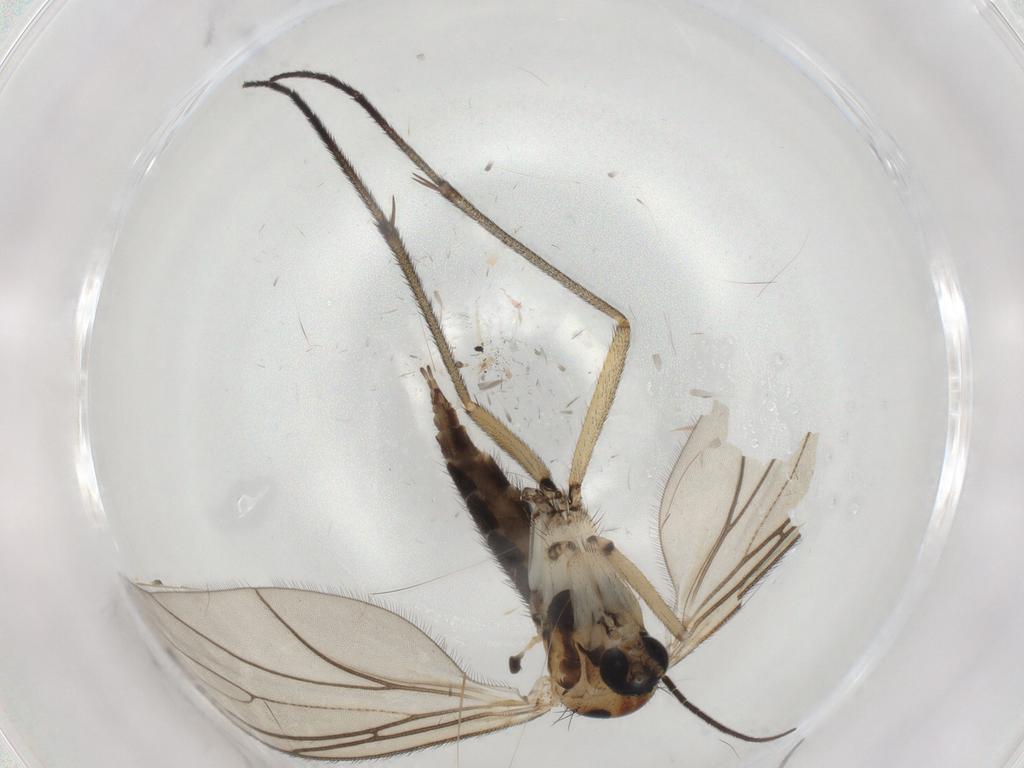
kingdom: Animalia
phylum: Arthropoda
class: Insecta
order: Diptera
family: Sciaridae
